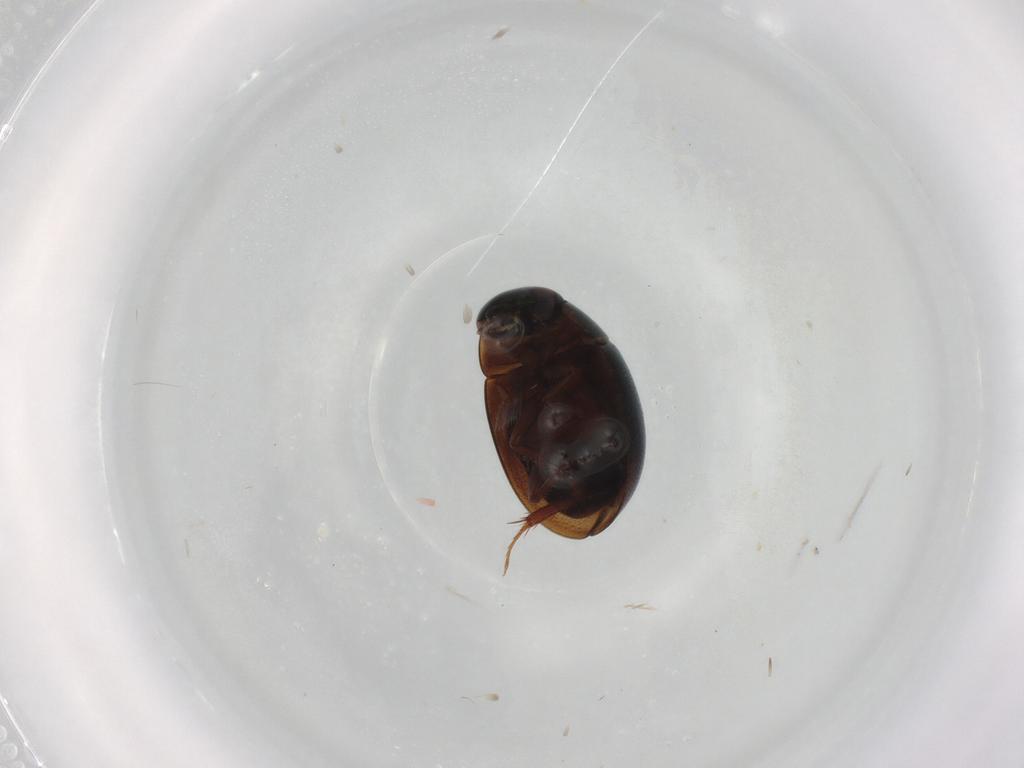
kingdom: Animalia
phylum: Arthropoda
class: Insecta
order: Coleoptera
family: Hydrophilidae
